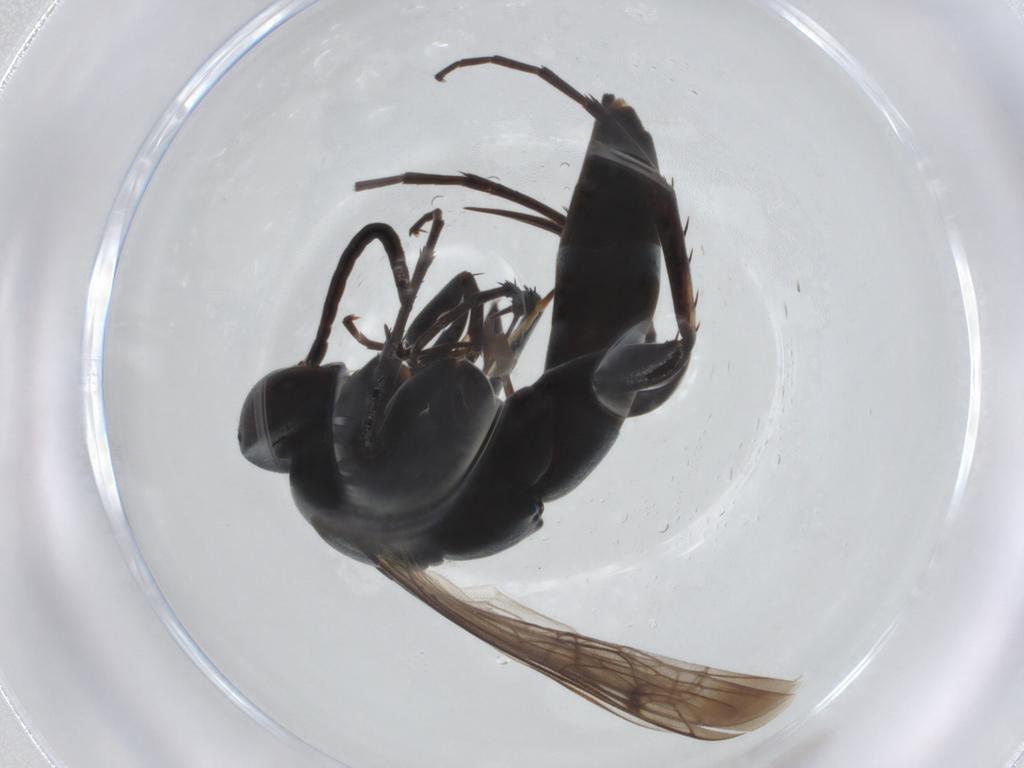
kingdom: Animalia
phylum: Arthropoda
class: Insecta
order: Hymenoptera
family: Pompilidae
